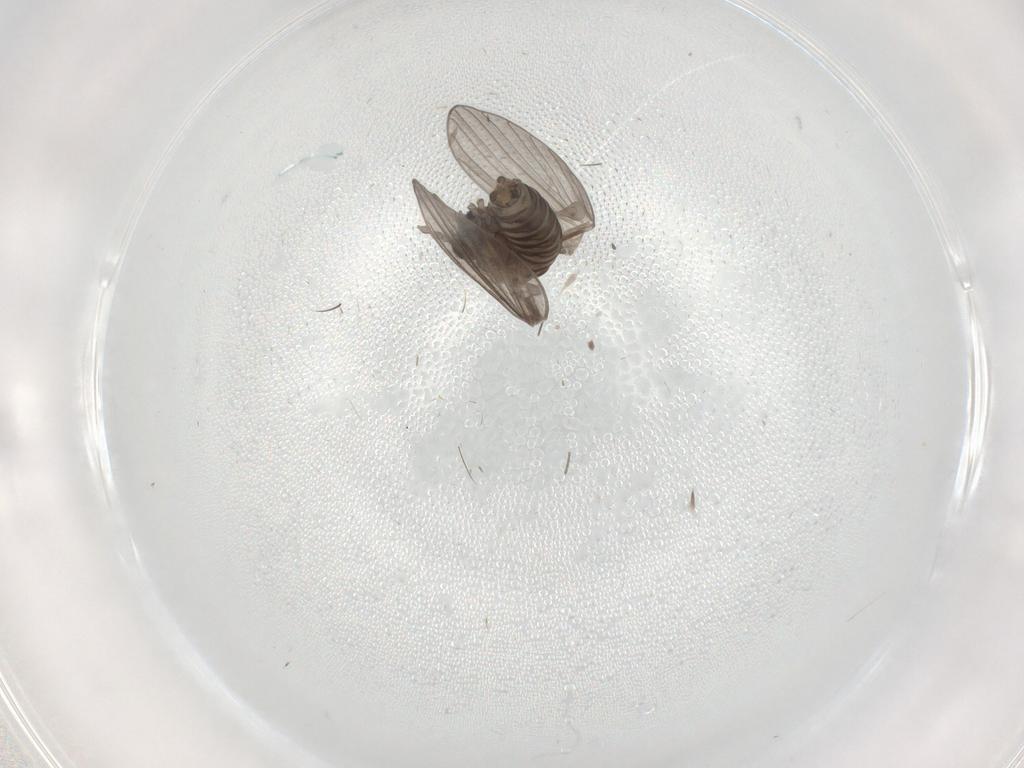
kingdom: Animalia
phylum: Arthropoda
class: Insecta
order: Diptera
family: Psychodidae
